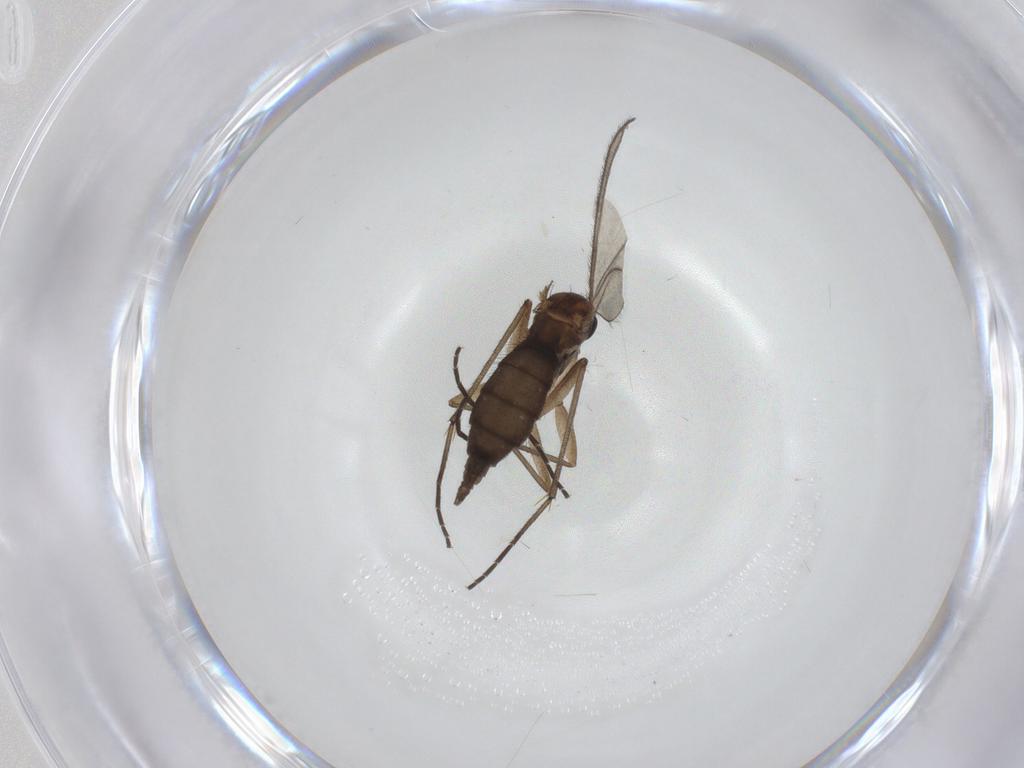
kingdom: Animalia
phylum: Arthropoda
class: Insecta
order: Diptera
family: Sciaridae
